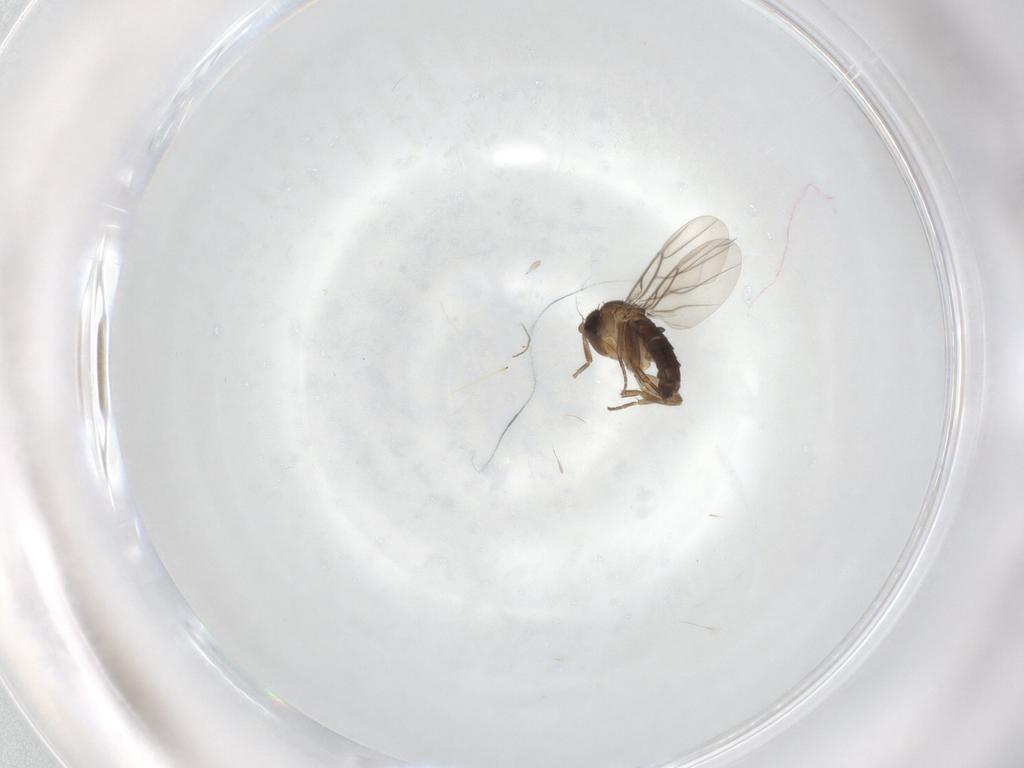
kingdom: Animalia
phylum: Arthropoda
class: Insecta
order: Diptera
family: Phoridae
